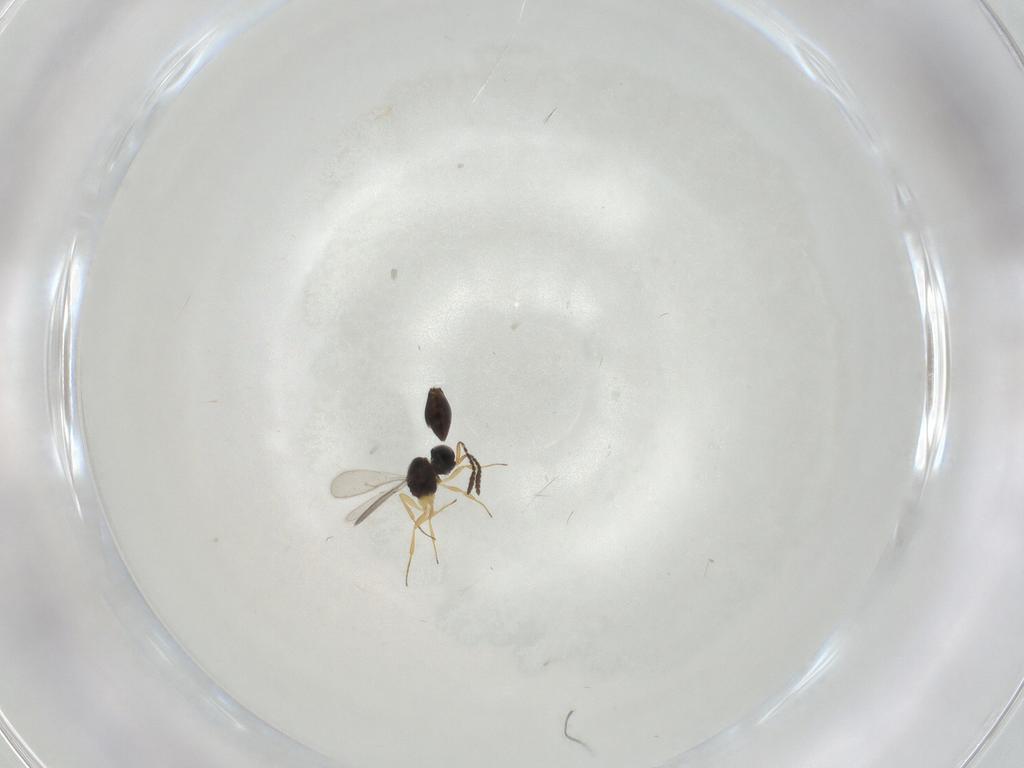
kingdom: Animalia
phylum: Arthropoda
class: Insecta
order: Hymenoptera
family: Scelionidae
